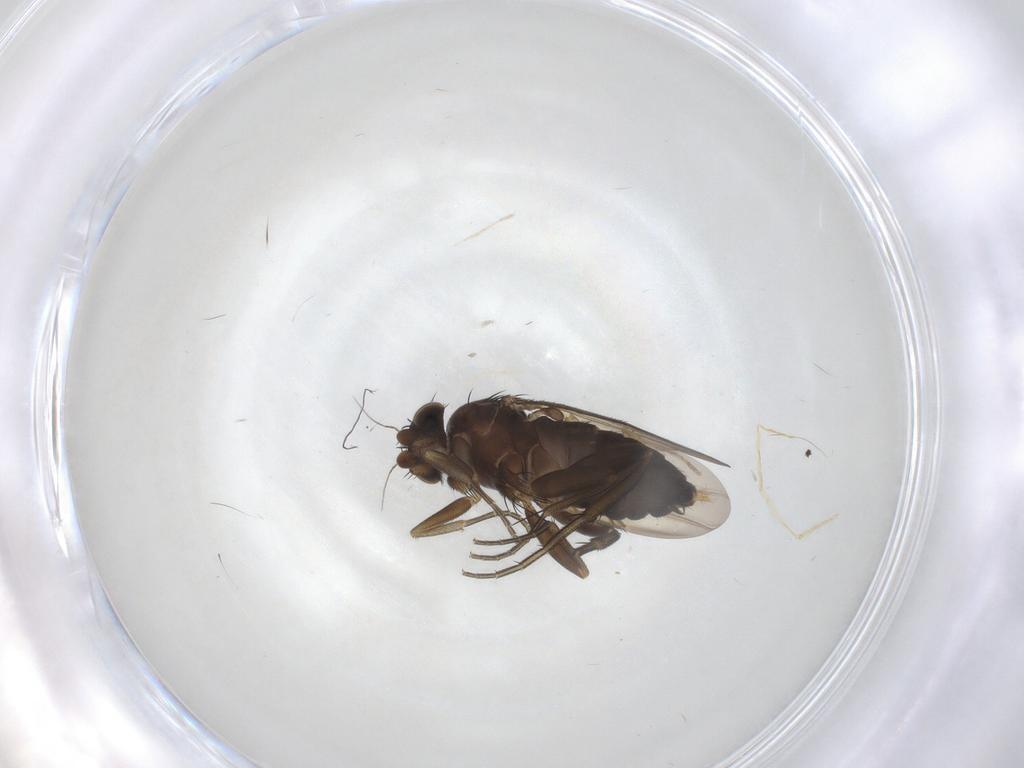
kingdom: Animalia
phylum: Arthropoda
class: Insecta
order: Diptera
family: Phoridae
